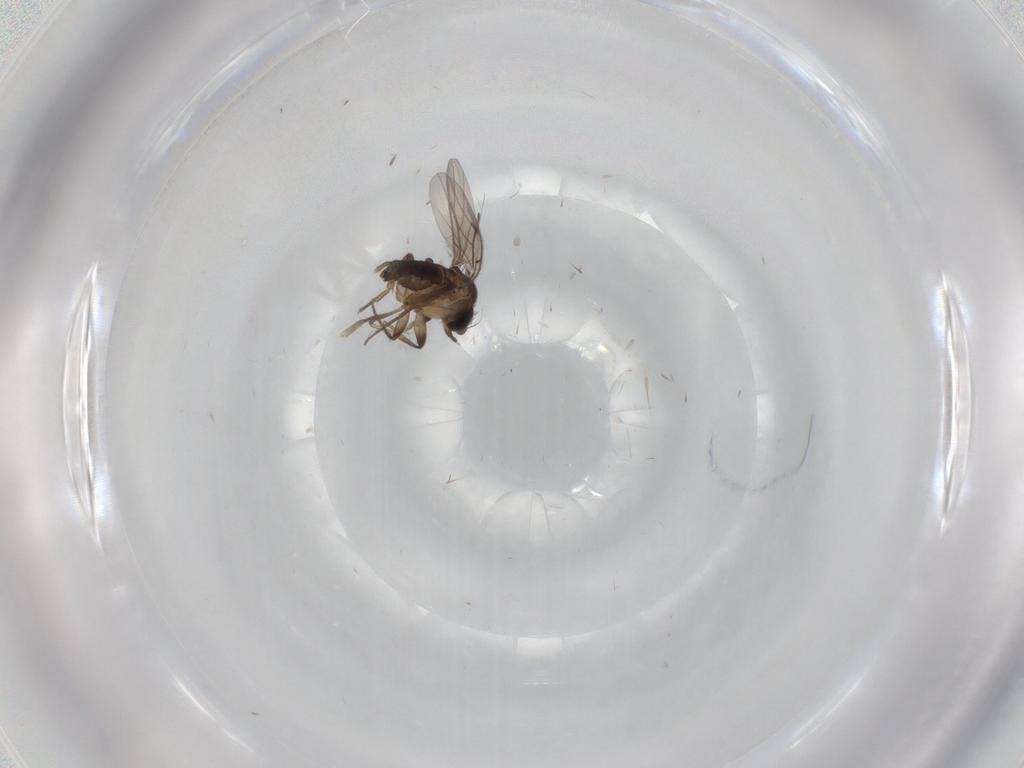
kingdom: Animalia
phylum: Arthropoda
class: Insecta
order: Diptera
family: Phoridae
